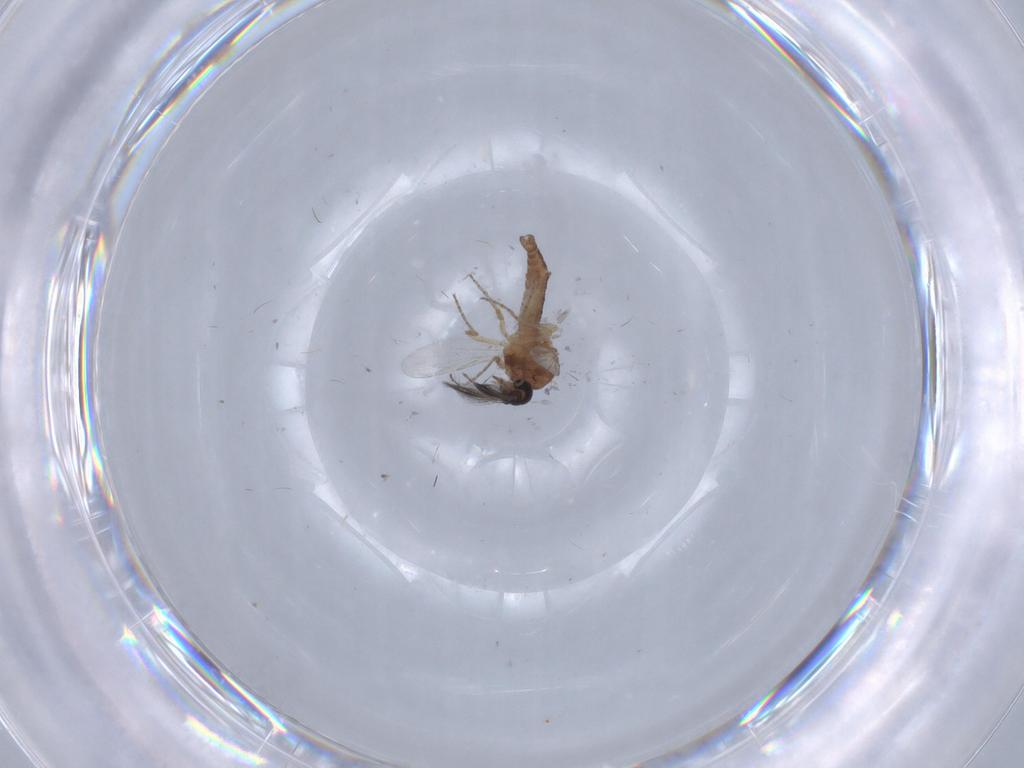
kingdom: Animalia
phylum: Arthropoda
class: Insecta
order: Diptera
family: Ceratopogonidae
